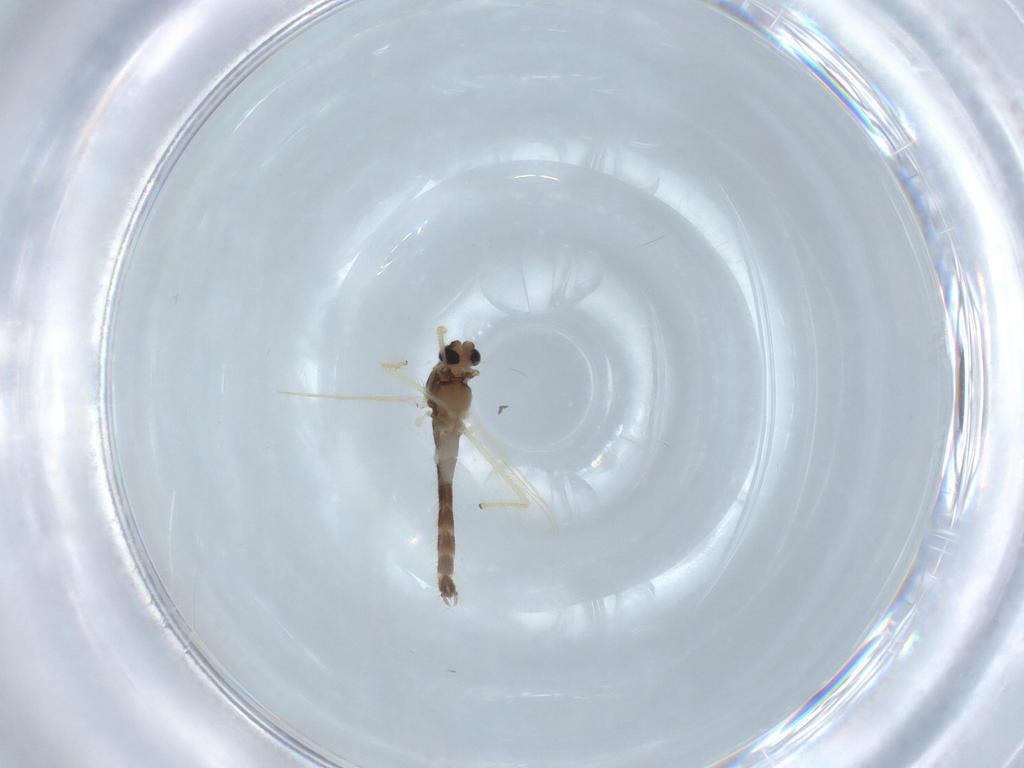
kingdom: Animalia
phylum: Arthropoda
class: Insecta
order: Diptera
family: Chironomidae
